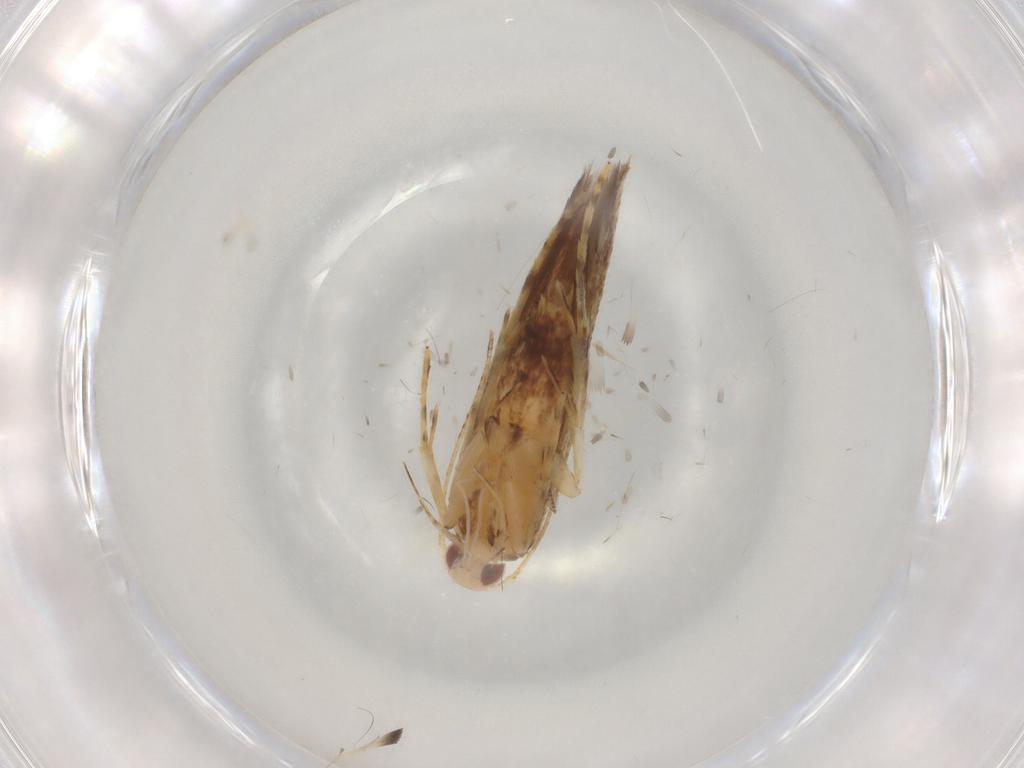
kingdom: Animalia
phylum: Arthropoda
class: Insecta
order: Lepidoptera
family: Cosmopterigidae
